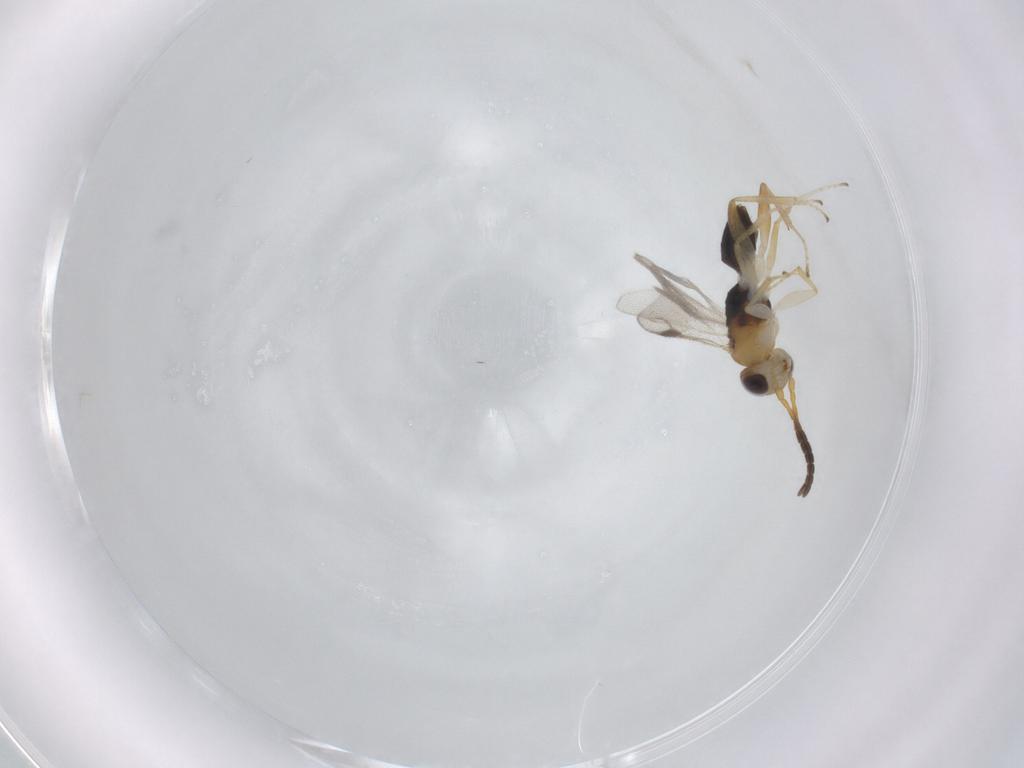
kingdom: Animalia
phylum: Arthropoda
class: Insecta
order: Hymenoptera
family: Dryinidae
